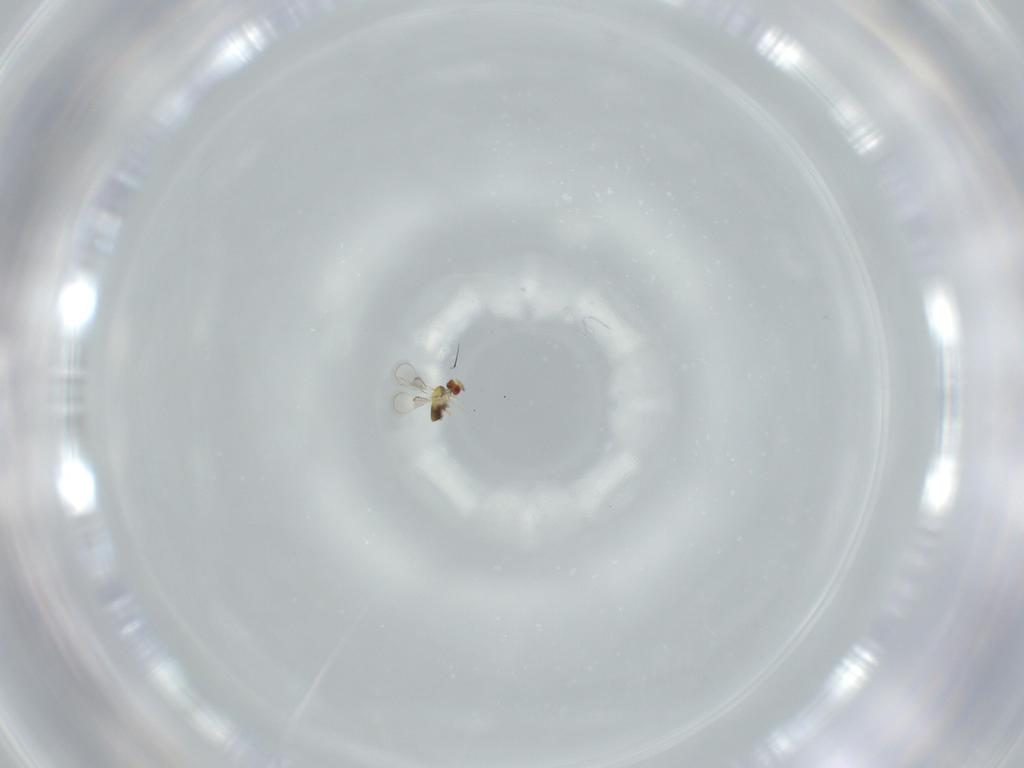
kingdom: Animalia
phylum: Arthropoda
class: Insecta
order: Hymenoptera
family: Trichogrammatidae
